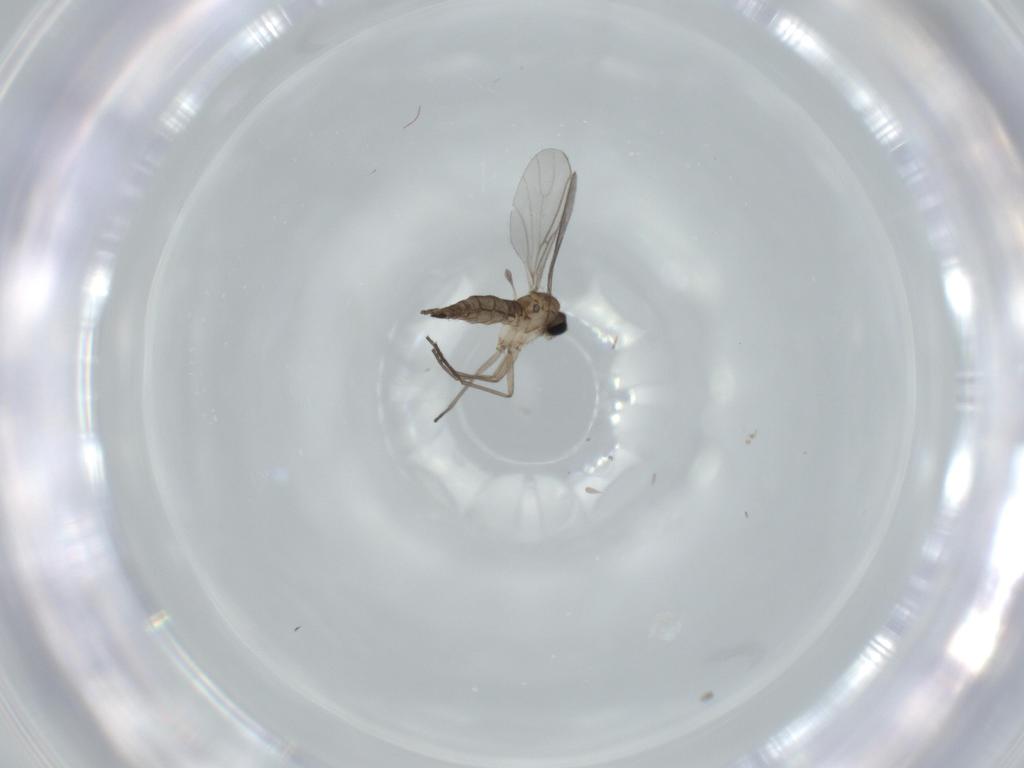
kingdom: Animalia
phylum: Arthropoda
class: Insecta
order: Diptera
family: Sciaridae
